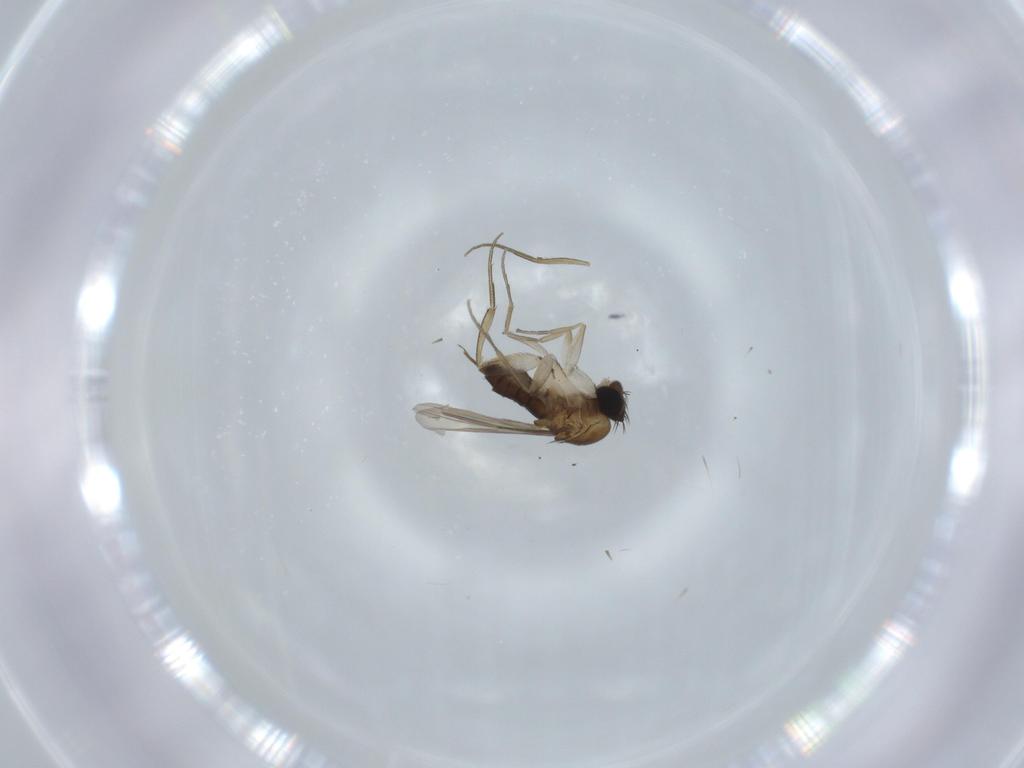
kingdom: Animalia
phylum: Arthropoda
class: Insecta
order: Diptera
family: Phoridae
